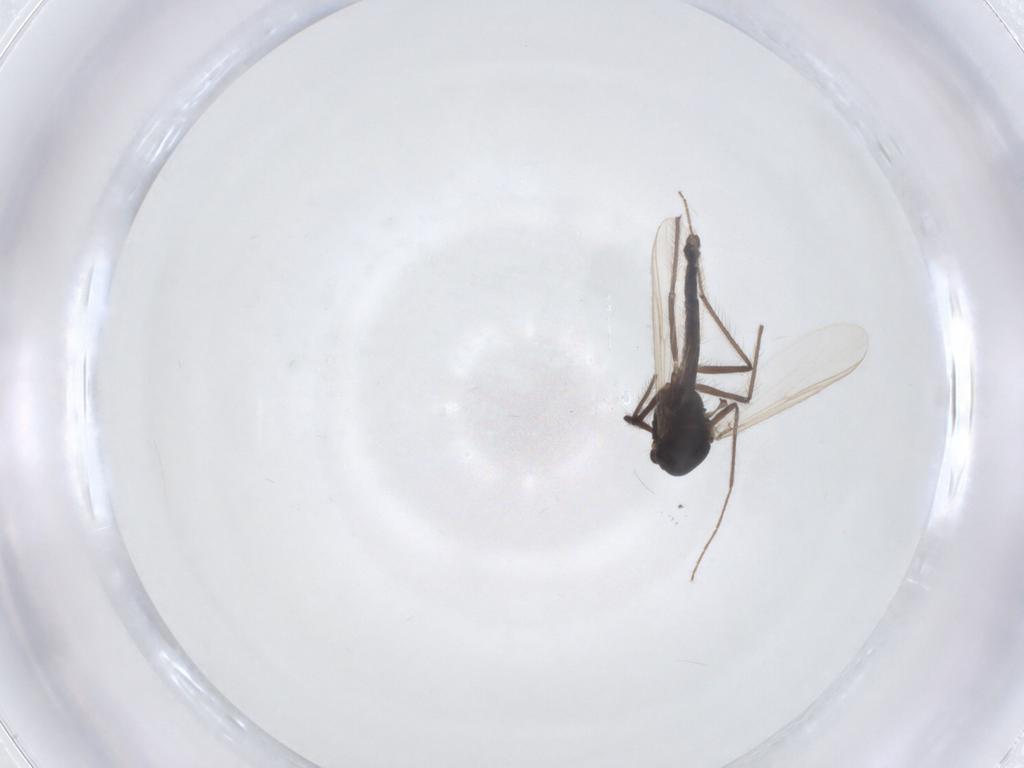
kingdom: Animalia
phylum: Arthropoda
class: Insecta
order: Diptera
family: Chironomidae
